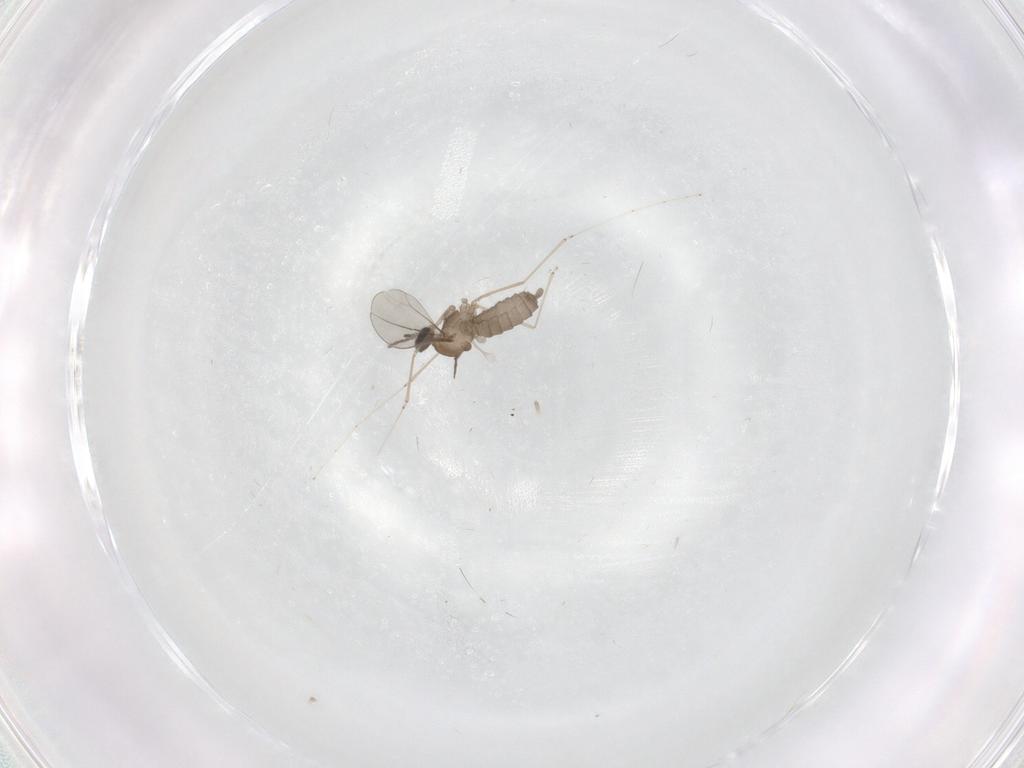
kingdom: Animalia
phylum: Arthropoda
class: Insecta
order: Diptera
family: Cecidomyiidae
